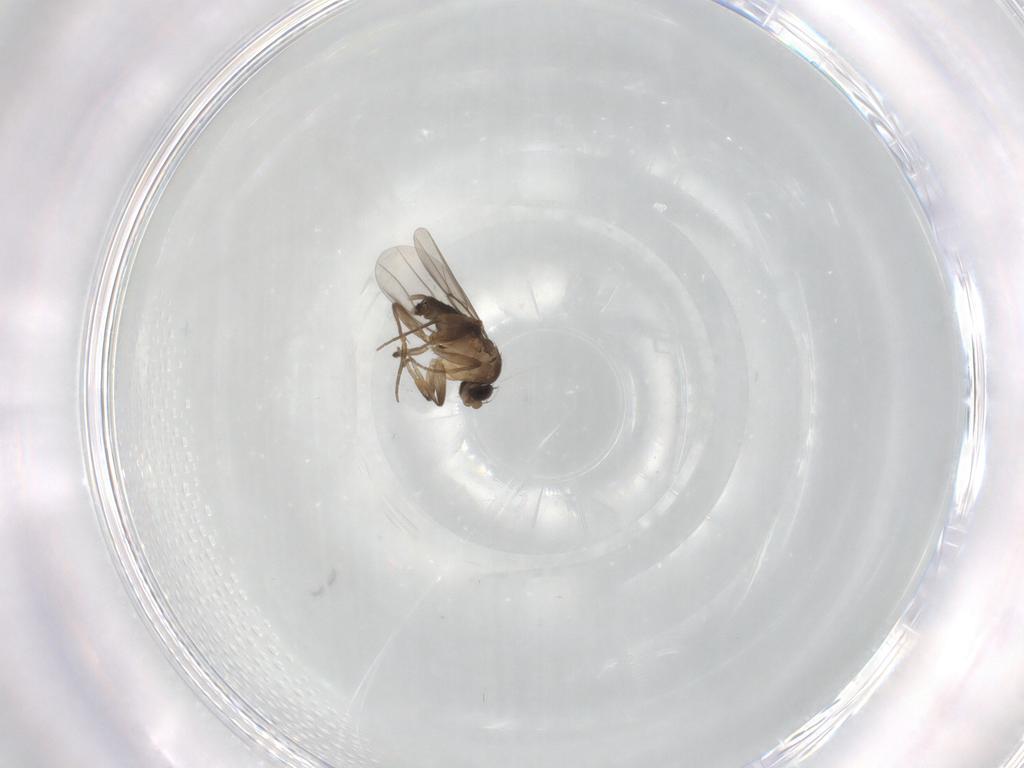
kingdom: Animalia
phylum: Arthropoda
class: Insecta
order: Diptera
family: Phoridae
